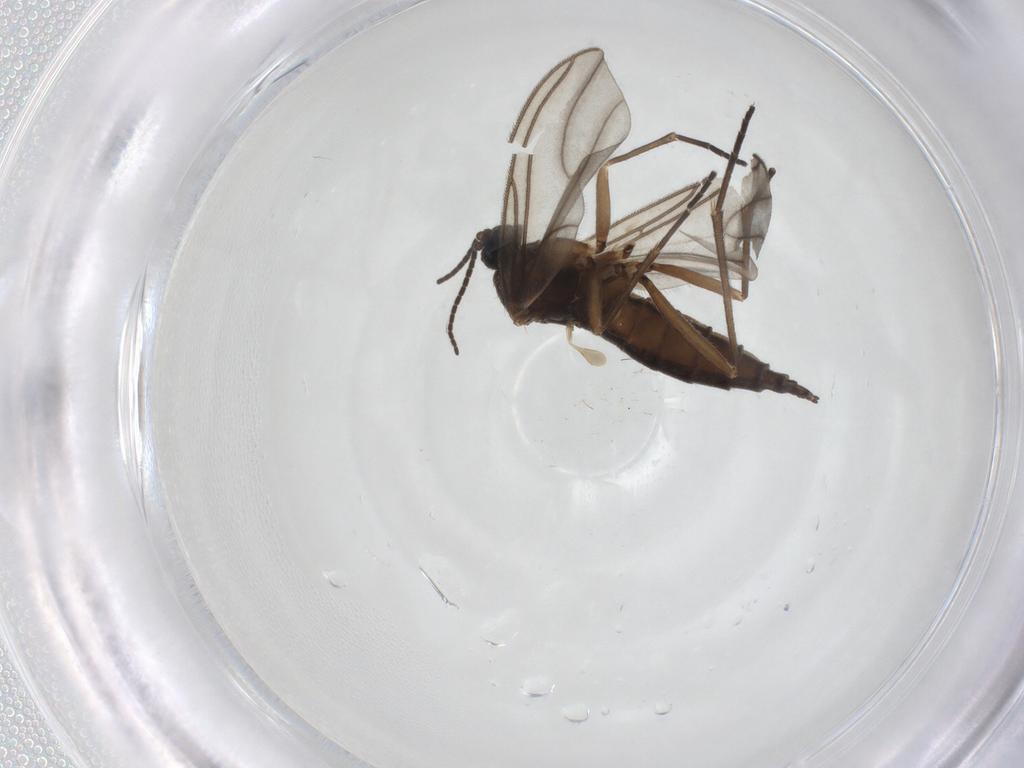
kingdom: Animalia
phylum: Arthropoda
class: Insecta
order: Diptera
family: Sciaridae
